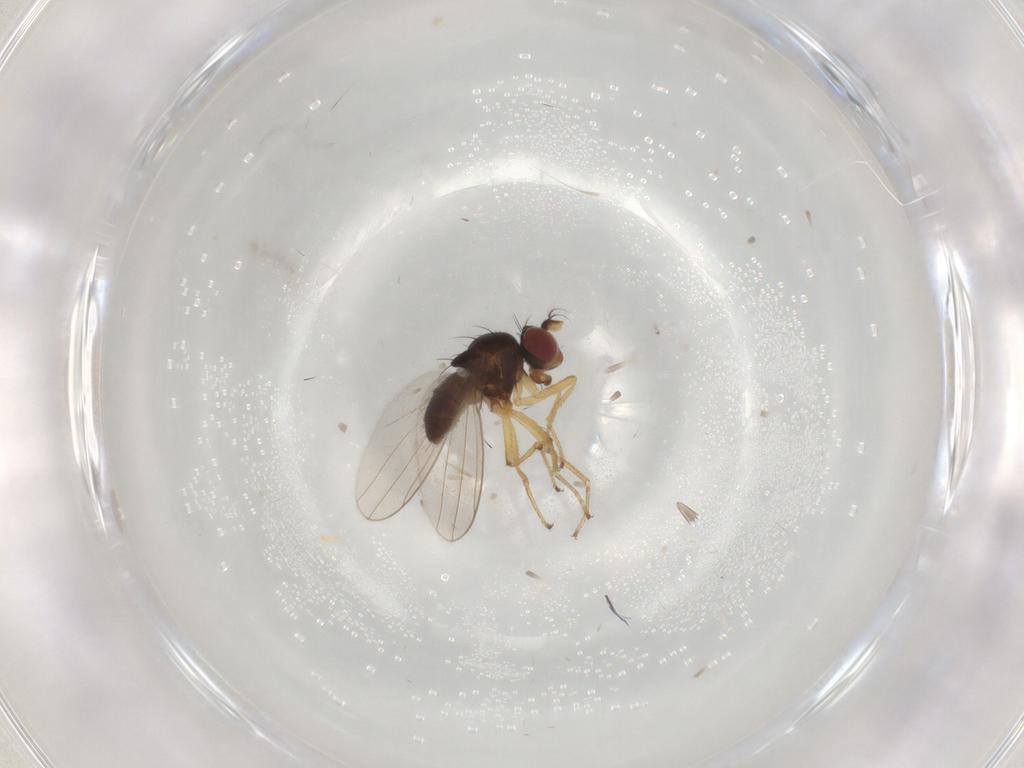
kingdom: Animalia
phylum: Arthropoda
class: Insecta
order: Diptera
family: Ephydridae
